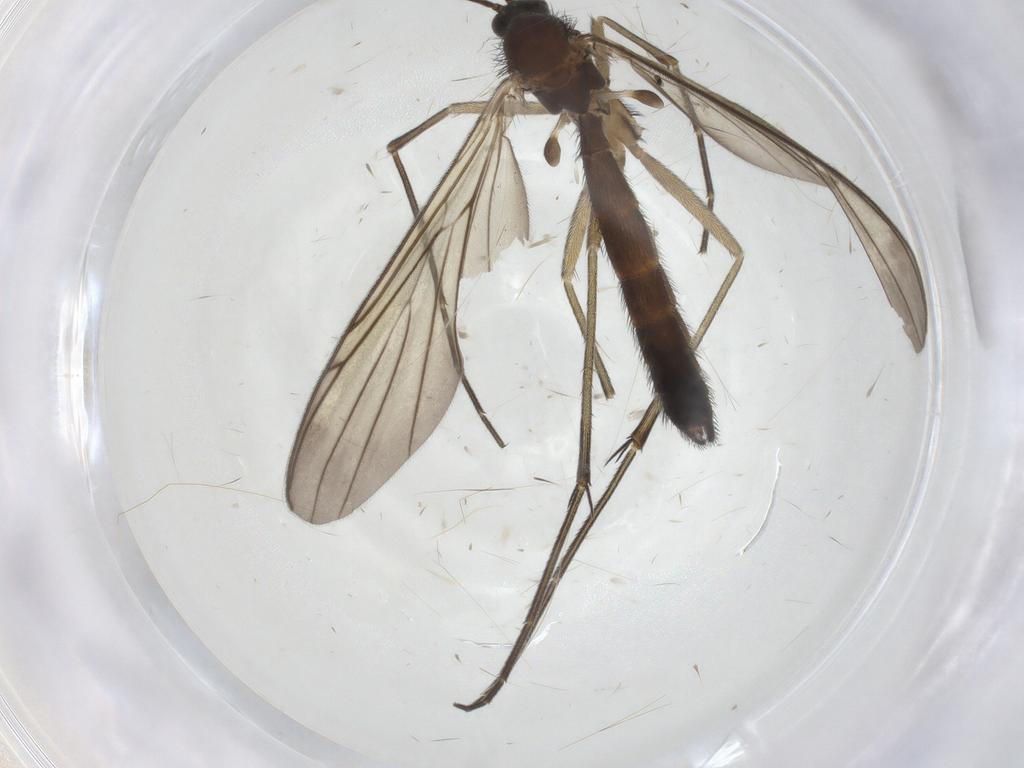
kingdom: Animalia
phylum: Arthropoda
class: Insecta
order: Diptera
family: Keroplatidae
